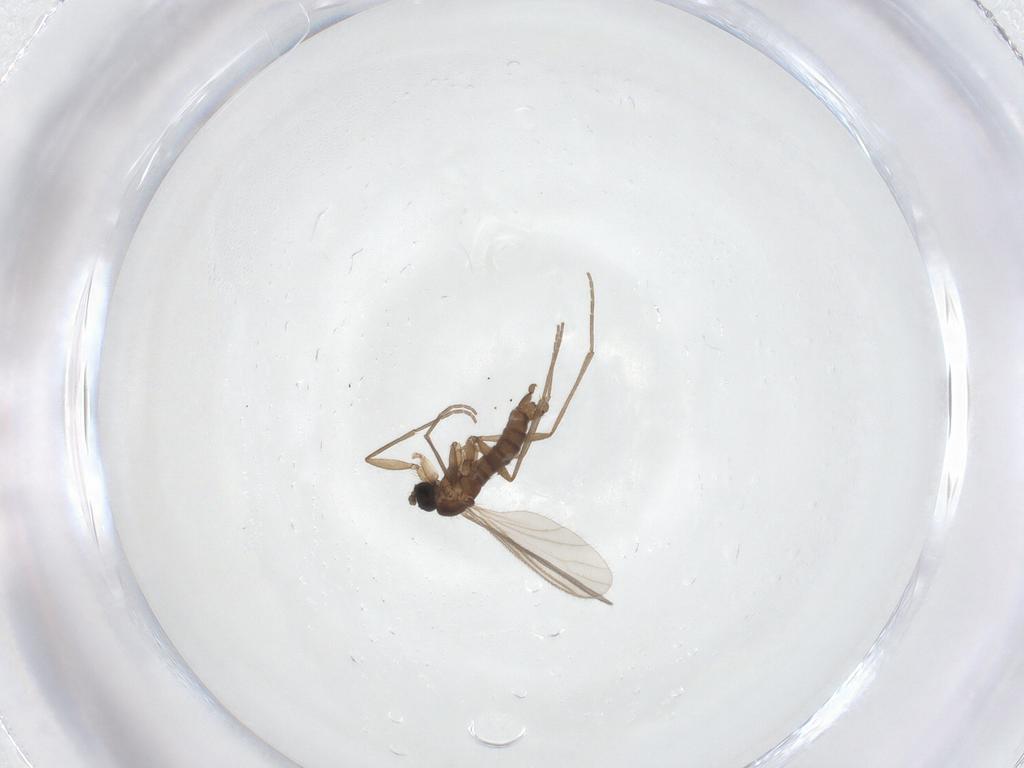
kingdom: Animalia
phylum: Arthropoda
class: Insecta
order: Diptera
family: Sciaridae
